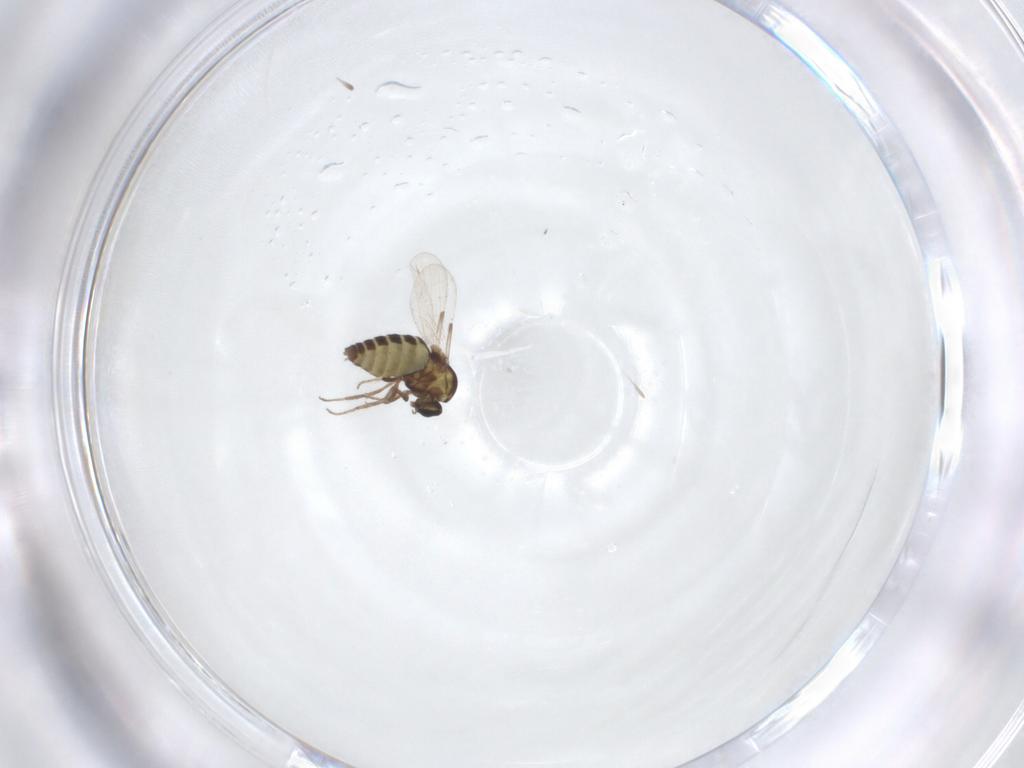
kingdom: Animalia
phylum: Arthropoda
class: Insecta
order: Diptera
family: Ceratopogonidae
